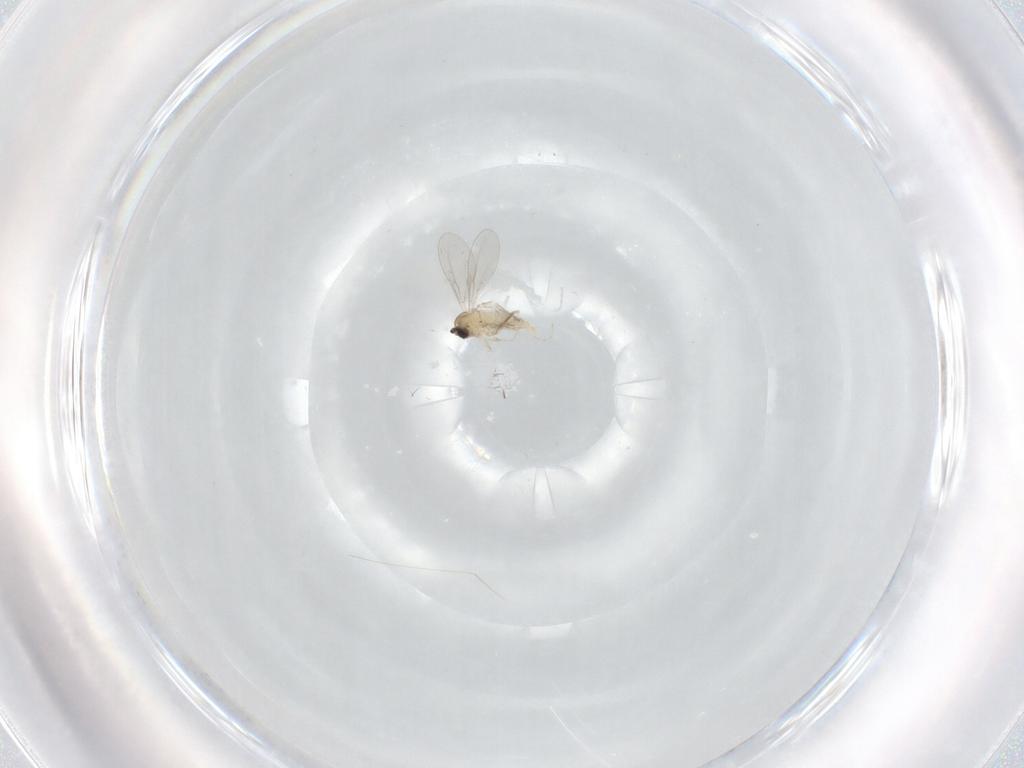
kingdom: Animalia
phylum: Arthropoda
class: Insecta
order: Diptera
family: Cecidomyiidae
